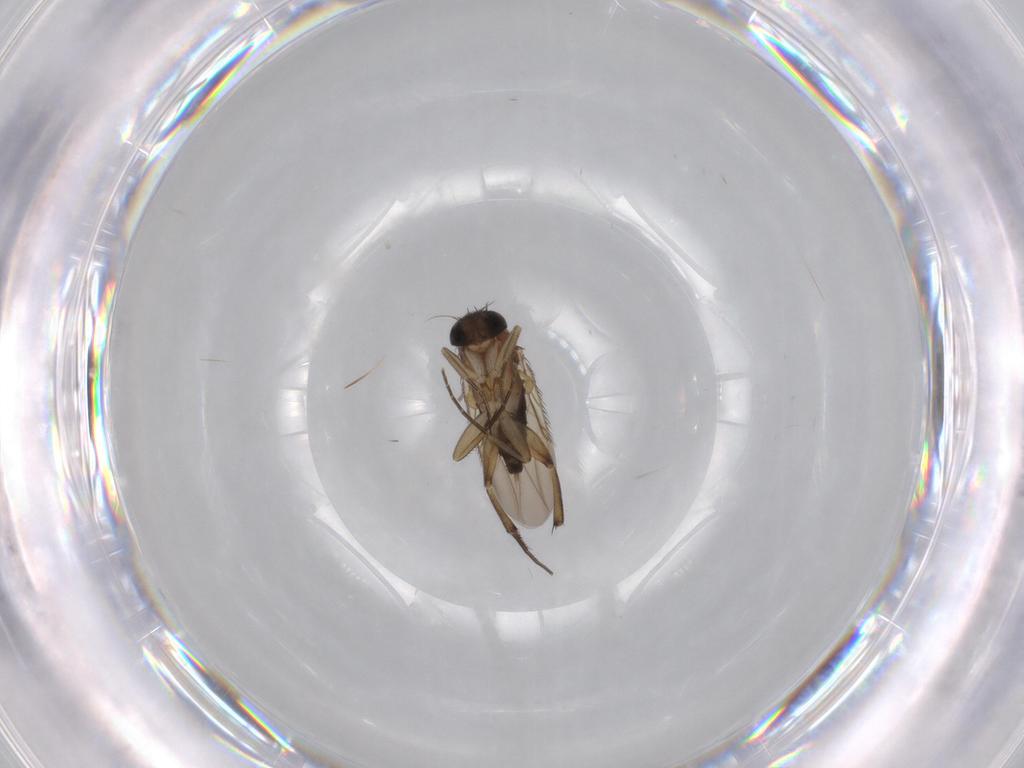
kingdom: Animalia
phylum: Arthropoda
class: Insecta
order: Diptera
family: Phoridae
